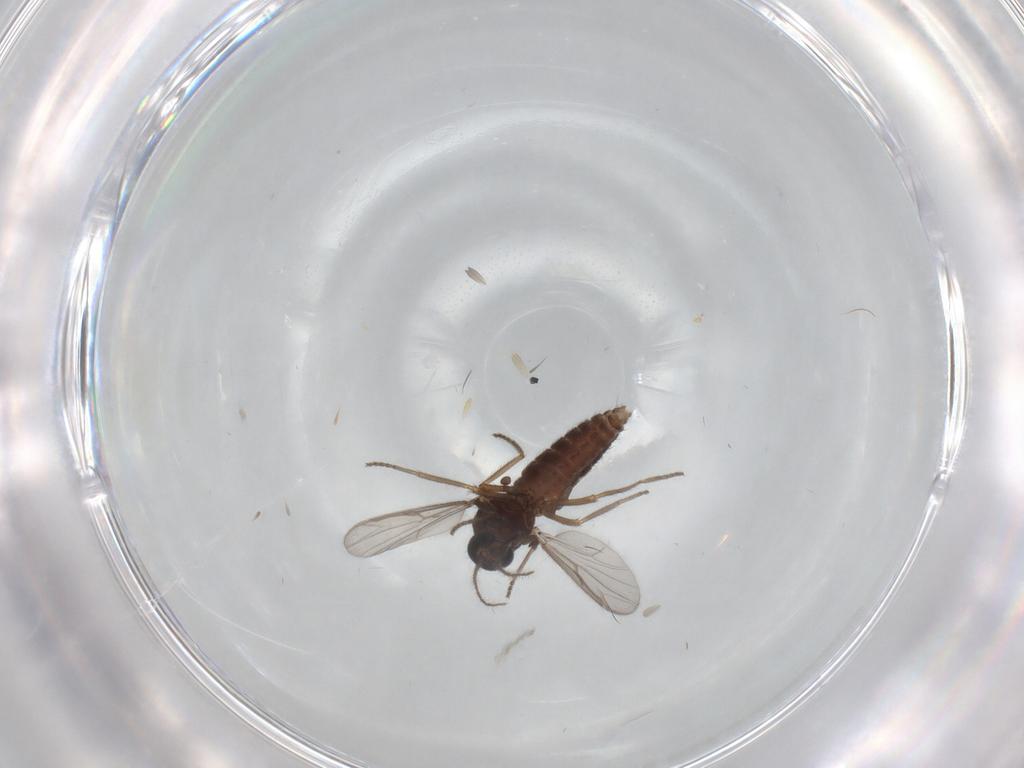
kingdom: Animalia
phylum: Arthropoda
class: Insecta
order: Diptera
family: Ceratopogonidae
